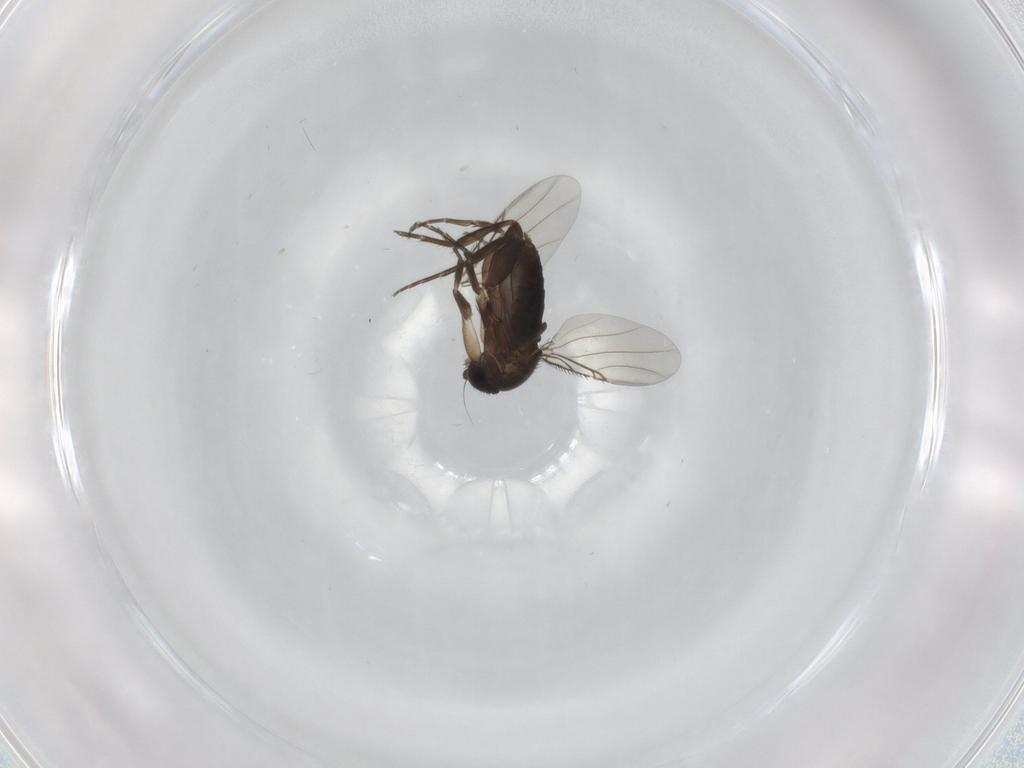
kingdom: Animalia
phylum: Arthropoda
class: Insecta
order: Diptera
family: Phoridae
